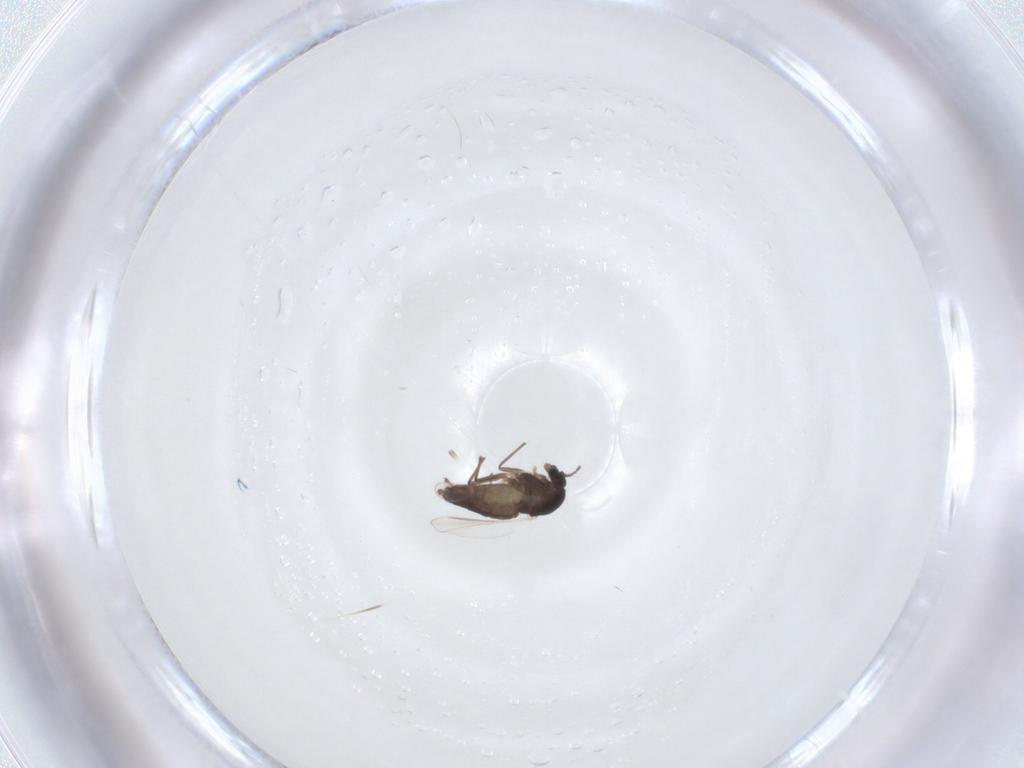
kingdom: Animalia
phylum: Arthropoda
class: Insecta
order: Diptera
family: Chironomidae
